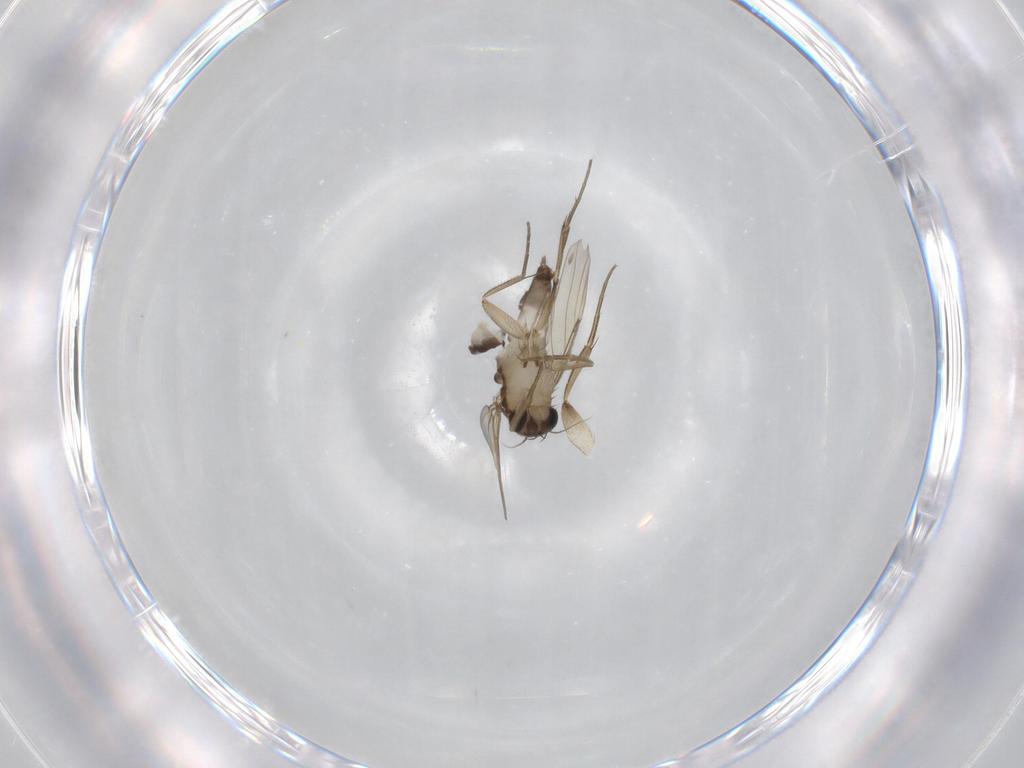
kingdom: Animalia
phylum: Arthropoda
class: Insecta
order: Diptera
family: Phoridae
